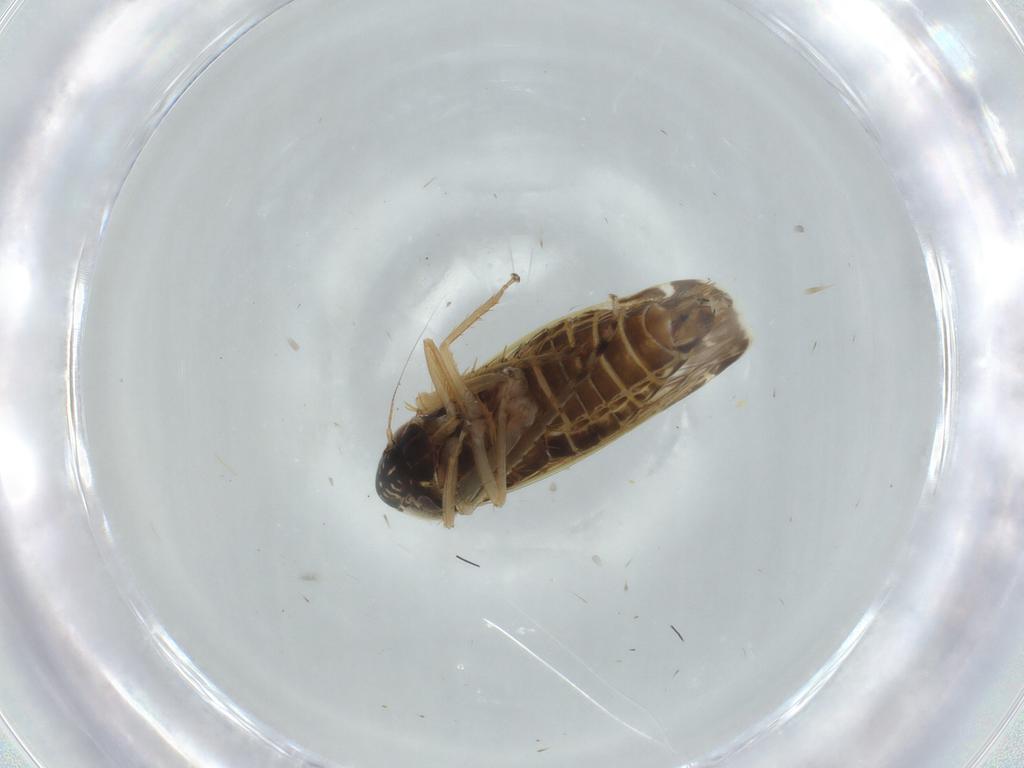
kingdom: Animalia
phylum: Arthropoda
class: Insecta
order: Hemiptera
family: Cicadellidae
